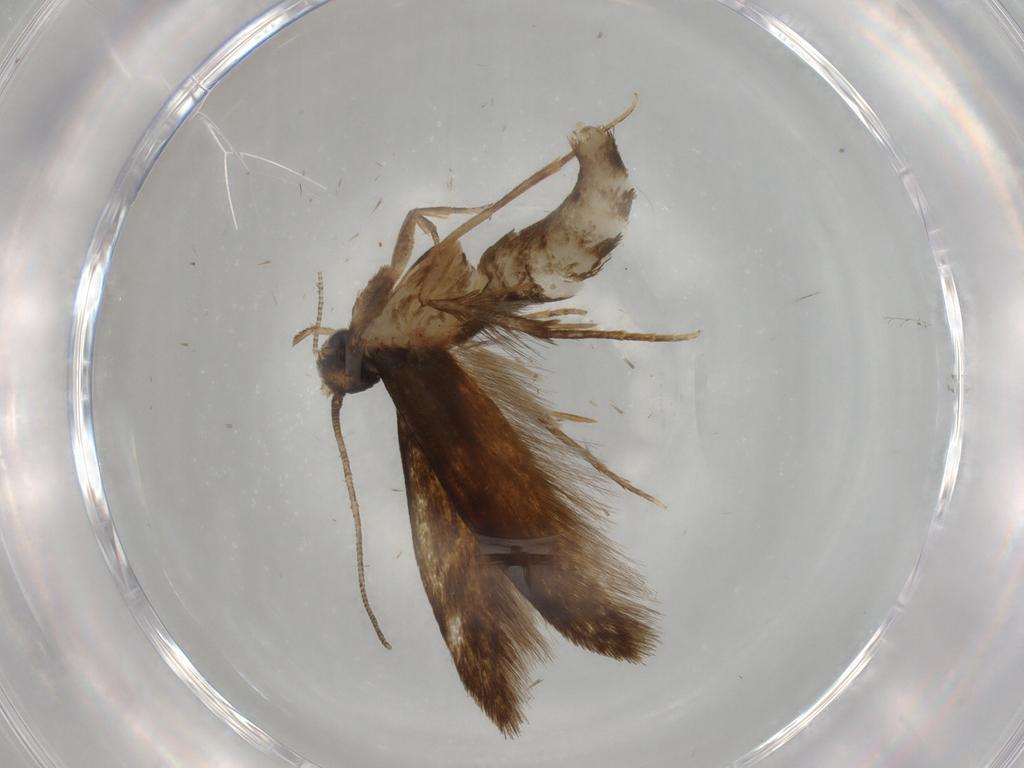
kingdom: Animalia
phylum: Arthropoda
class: Insecta
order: Lepidoptera
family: Tineidae
